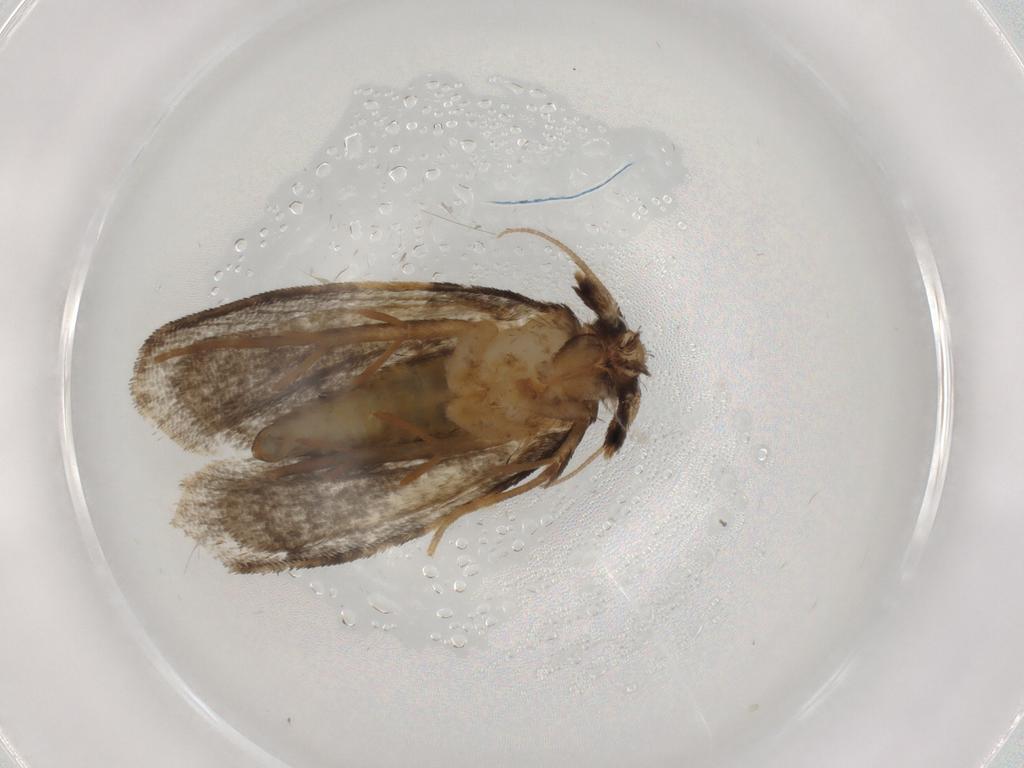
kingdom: Animalia
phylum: Arthropoda
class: Insecta
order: Lepidoptera
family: Psychidae
